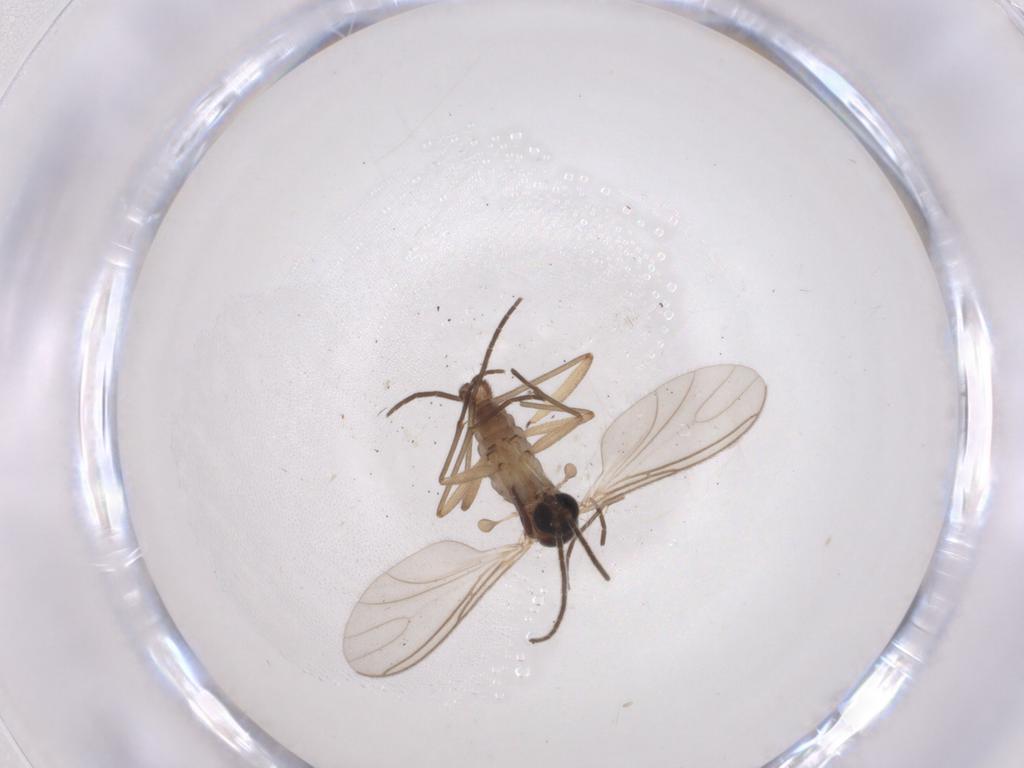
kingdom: Animalia
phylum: Arthropoda
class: Insecta
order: Diptera
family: Sciaridae
